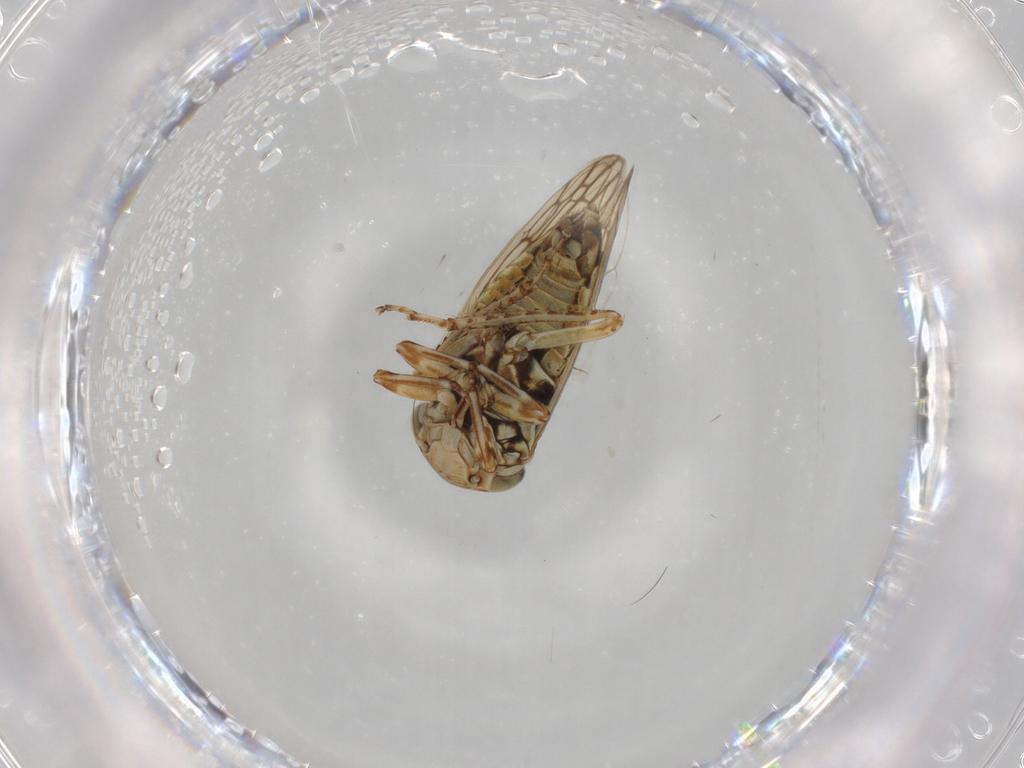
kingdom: Animalia
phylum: Arthropoda
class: Insecta
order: Hemiptera
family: Cicadellidae
